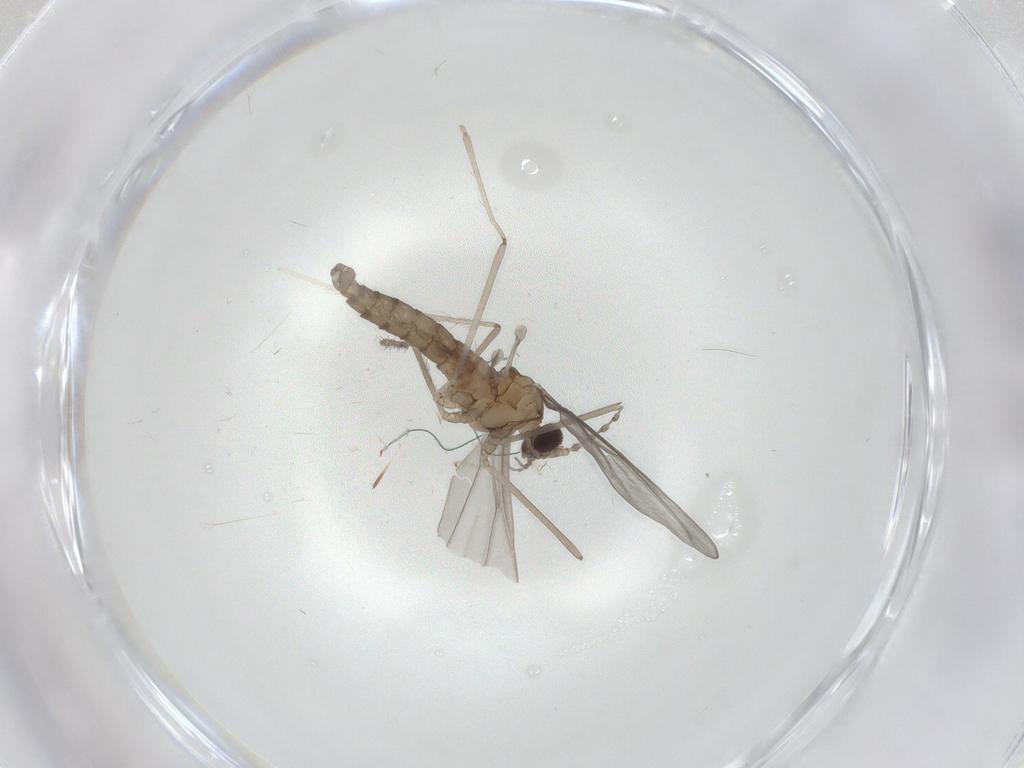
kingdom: Animalia
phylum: Arthropoda
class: Insecta
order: Diptera
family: Cecidomyiidae
